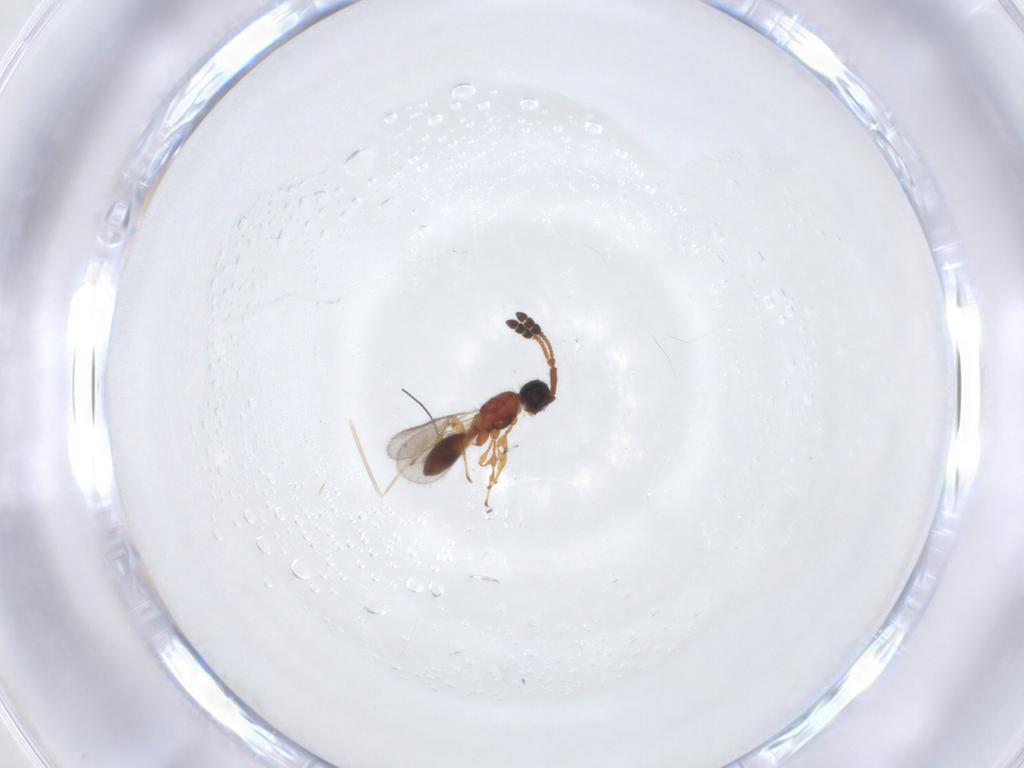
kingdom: Animalia
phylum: Arthropoda
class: Insecta
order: Hymenoptera
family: Diapriidae
